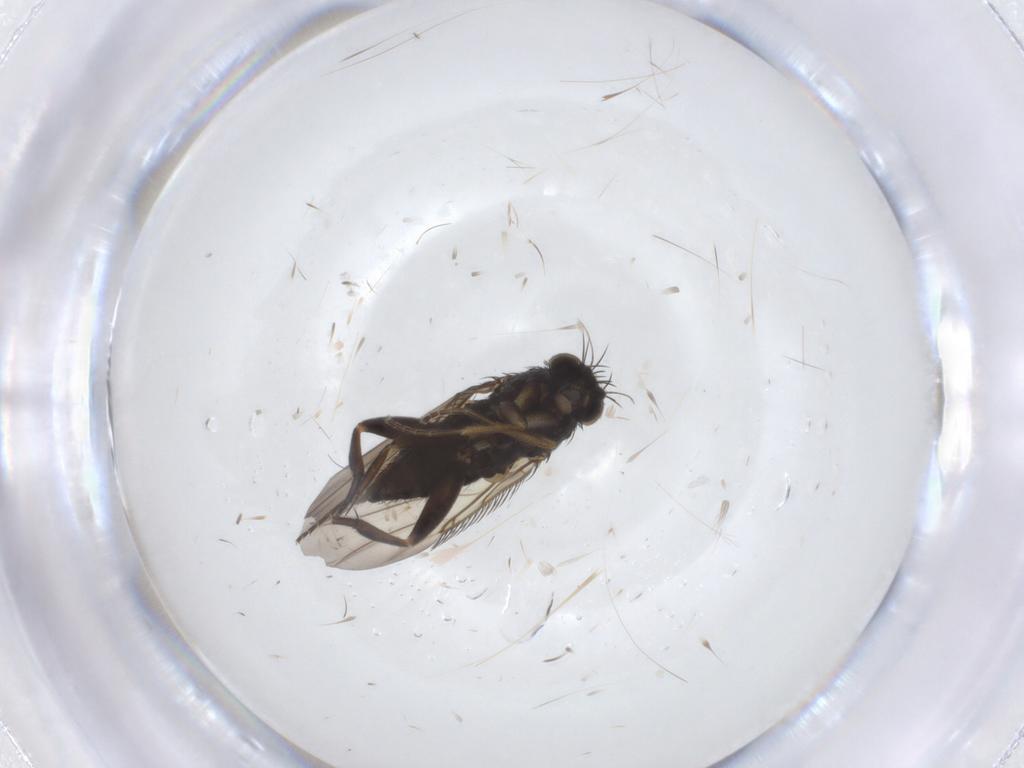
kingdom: Animalia
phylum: Arthropoda
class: Insecta
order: Diptera
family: Phoridae
